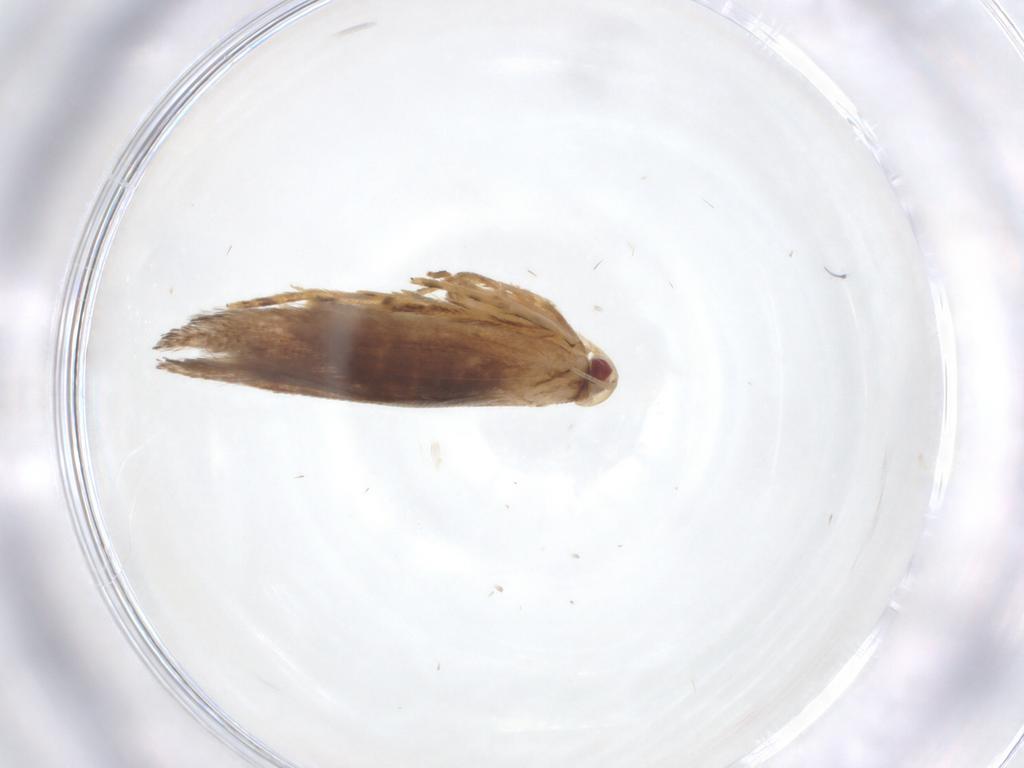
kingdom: Animalia
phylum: Arthropoda
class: Insecta
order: Lepidoptera
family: Cosmopterigidae
